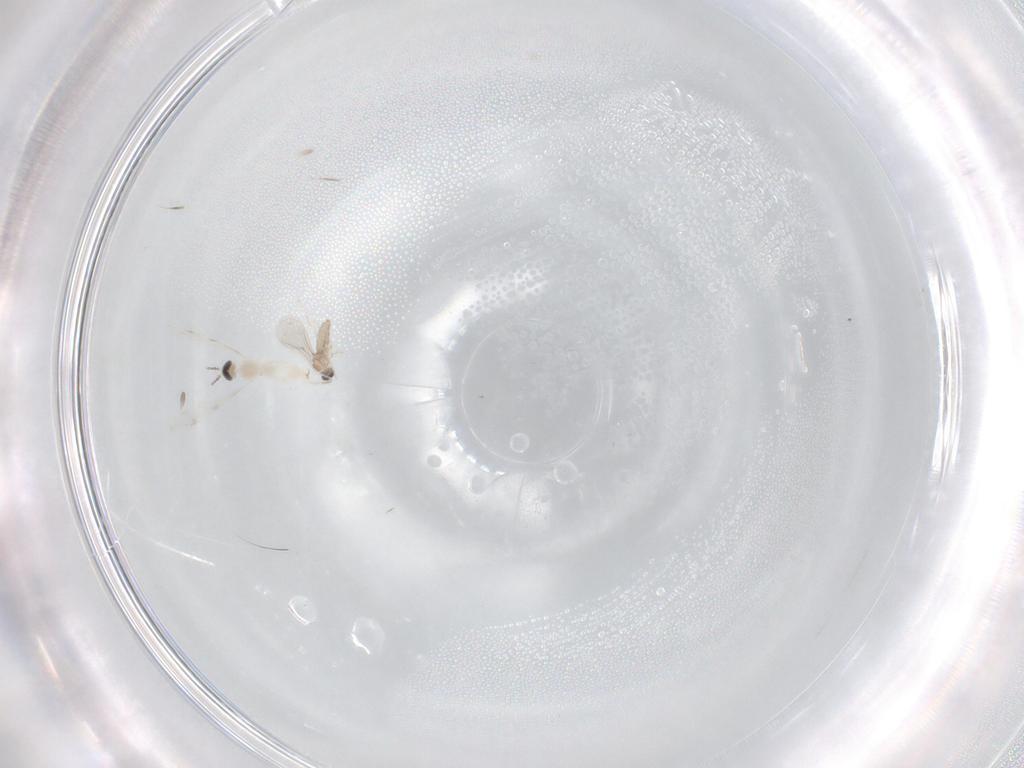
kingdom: Animalia
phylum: Arthropoda
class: Insecta
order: Diptera
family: Cecidomyiidae
